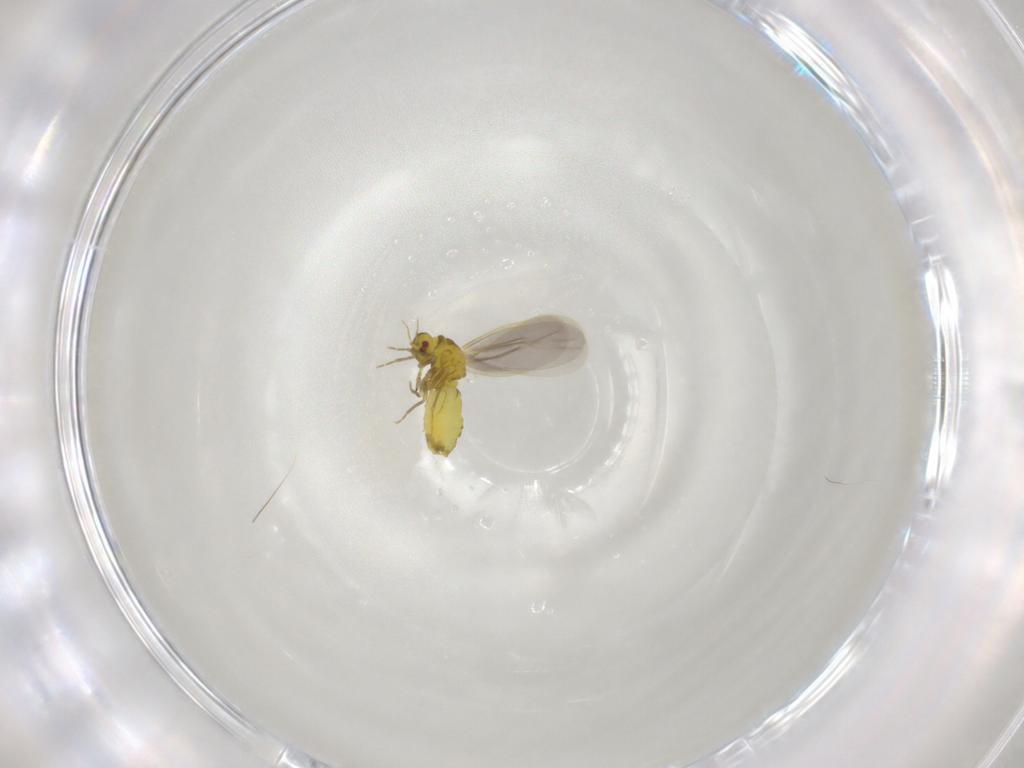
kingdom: Animalia
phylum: Arthropoda
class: Insecta
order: Hemiptera
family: Aleyrodidae
